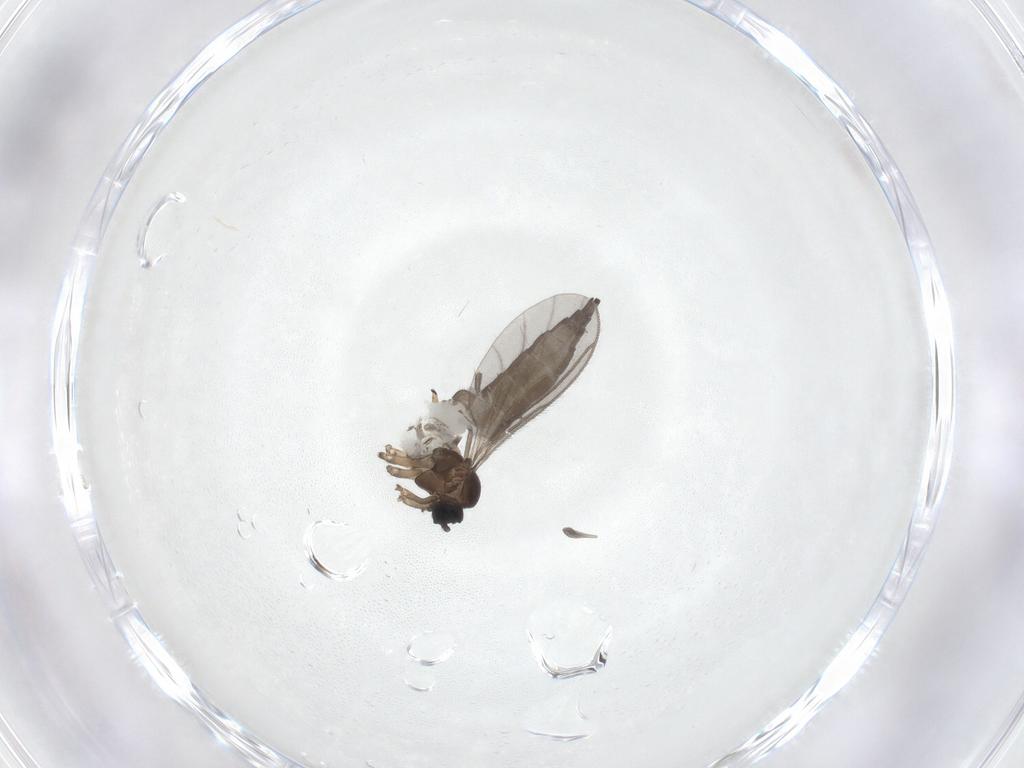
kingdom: Animalia
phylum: Arthropoda
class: Insecta
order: Diptera
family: Sciaridae
